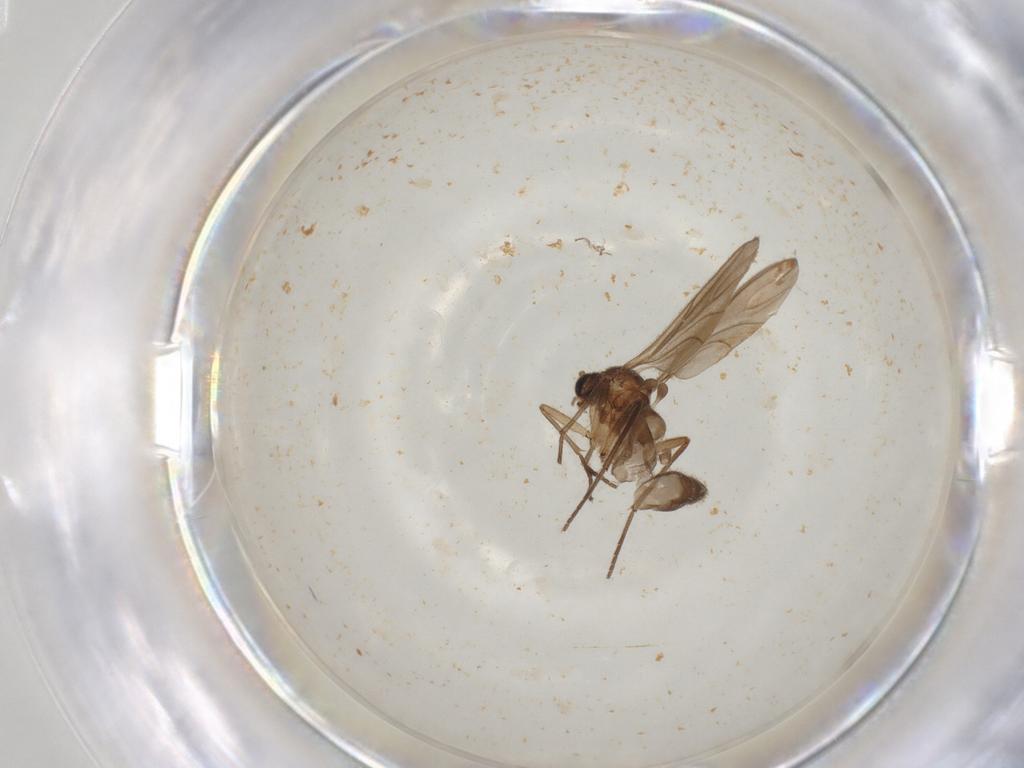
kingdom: Animalia
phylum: Arthropoda
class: Insecta
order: Diptera
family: Sciaridae
